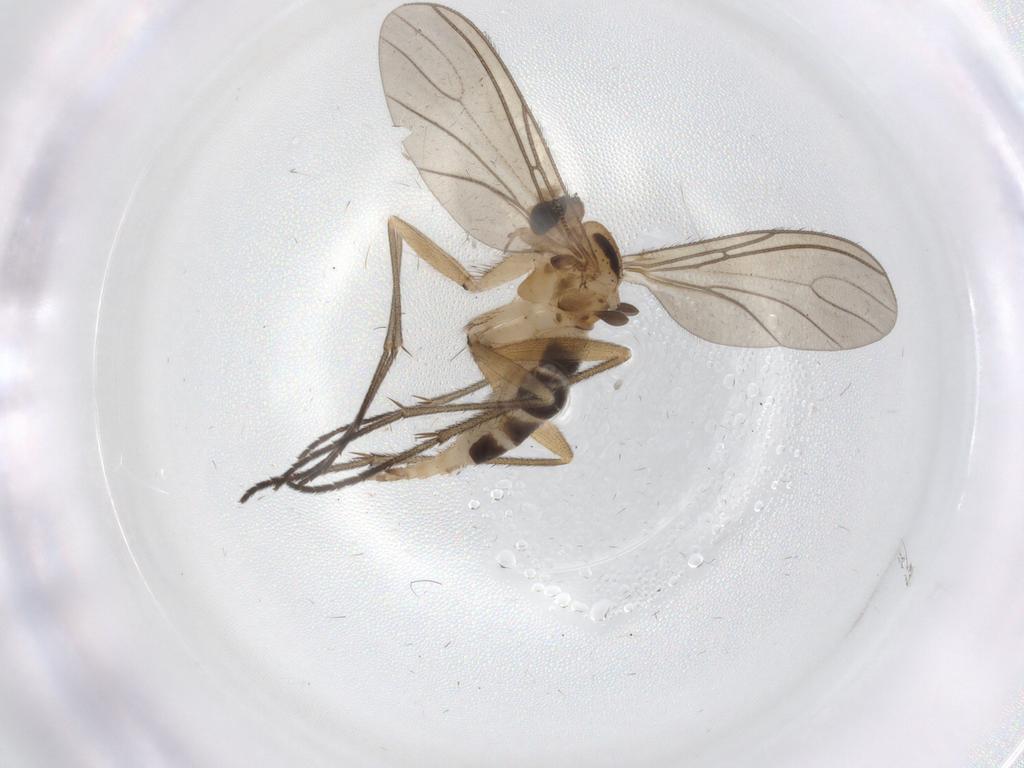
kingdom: Animalia
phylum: Arthropoda
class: Insecta
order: Diptera
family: Sciaridae
